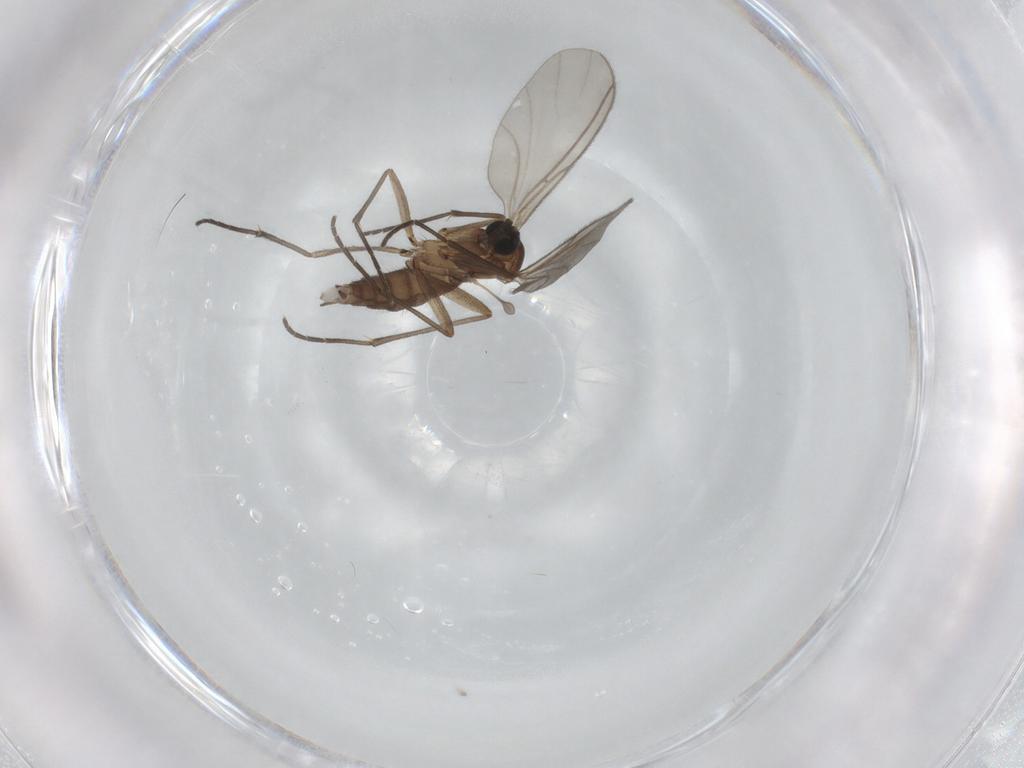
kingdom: Animalia
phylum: Arthropoda
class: Insecta
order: Diptera
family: Sciaridae
